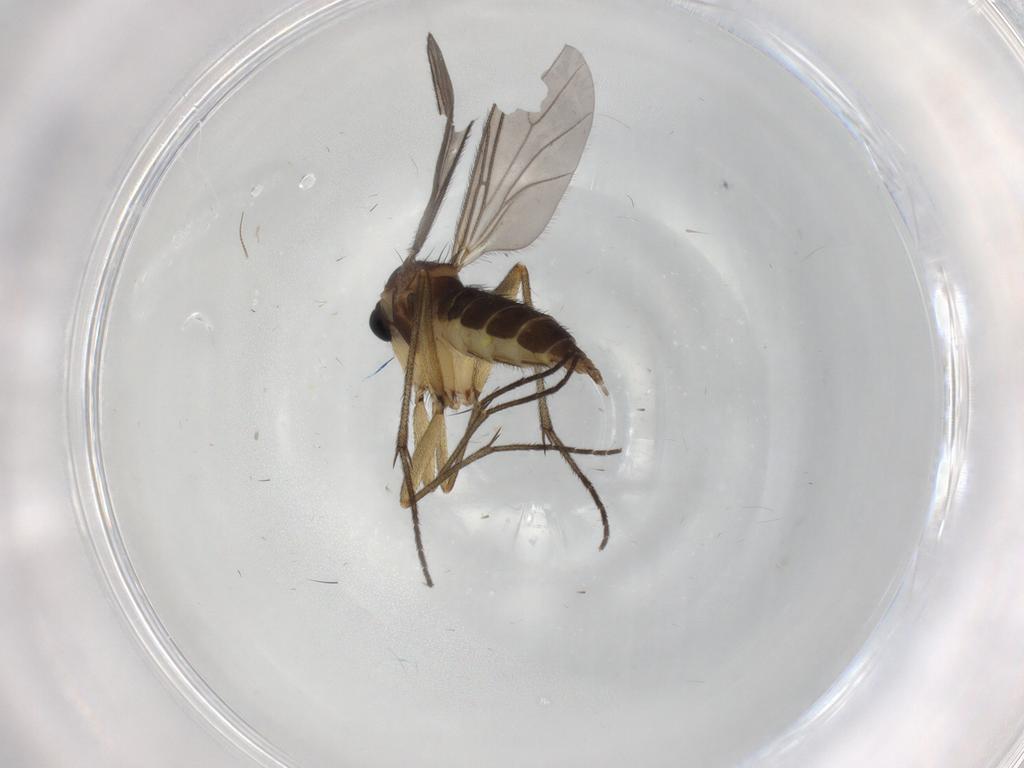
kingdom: Animalia
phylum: Arthropoda
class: Insecta
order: Diptera
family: Sciaridae
